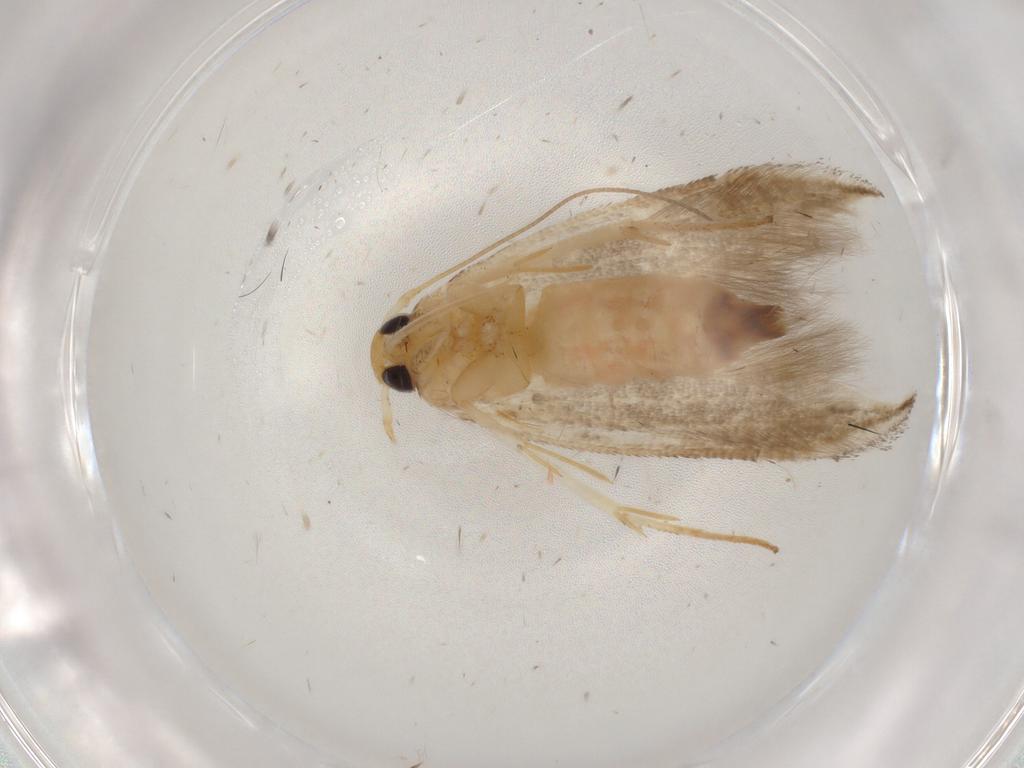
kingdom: Animalia
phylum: Arthropoda
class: Insecta
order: Lepidoptera
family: Momphidae
